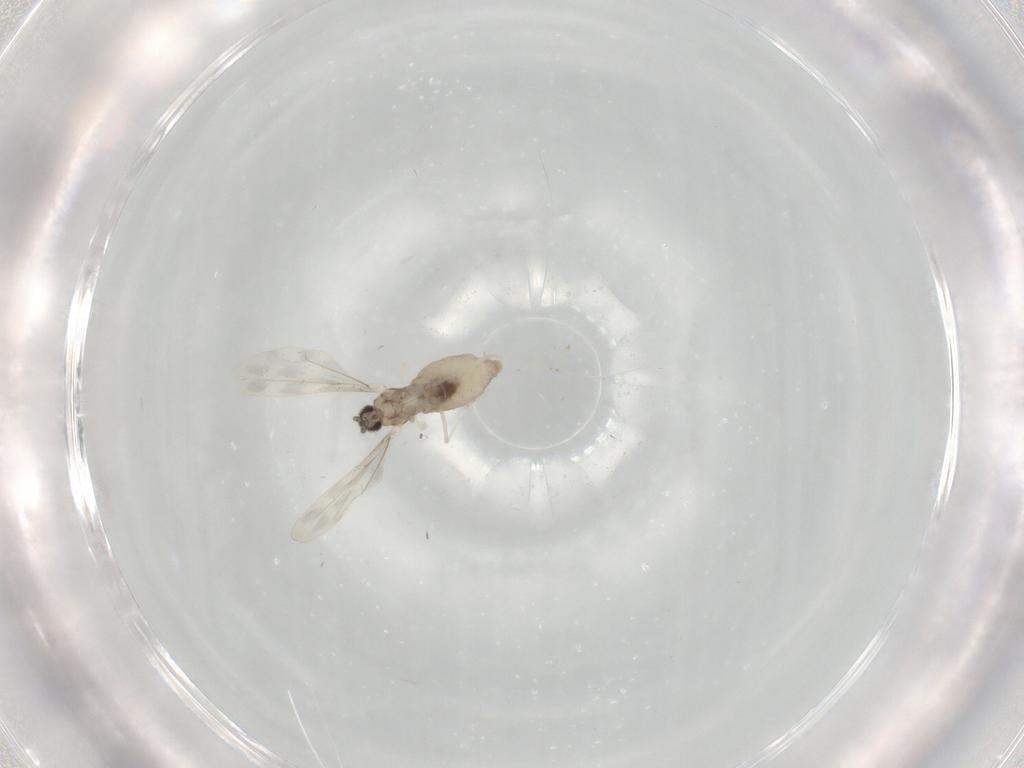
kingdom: Animalia
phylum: Arthropoda
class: Insecta
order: Diptera
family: Cecidomyiidae
